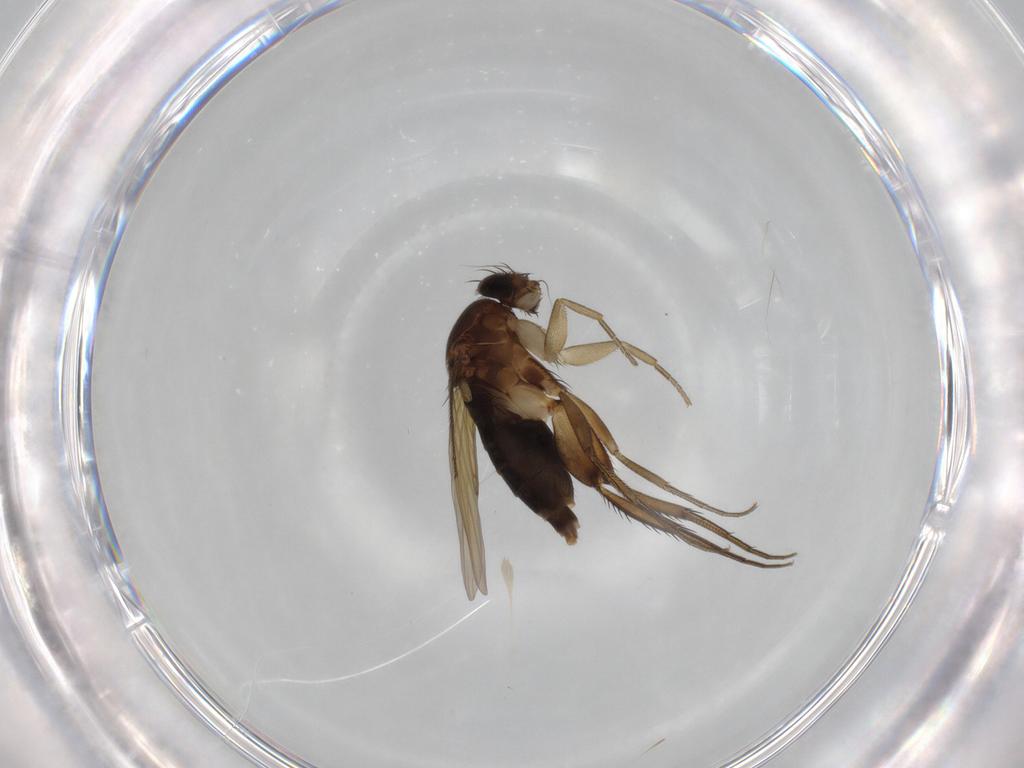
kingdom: Animalia
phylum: Arthropoda
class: Insecta
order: Diptera
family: Phoridae
